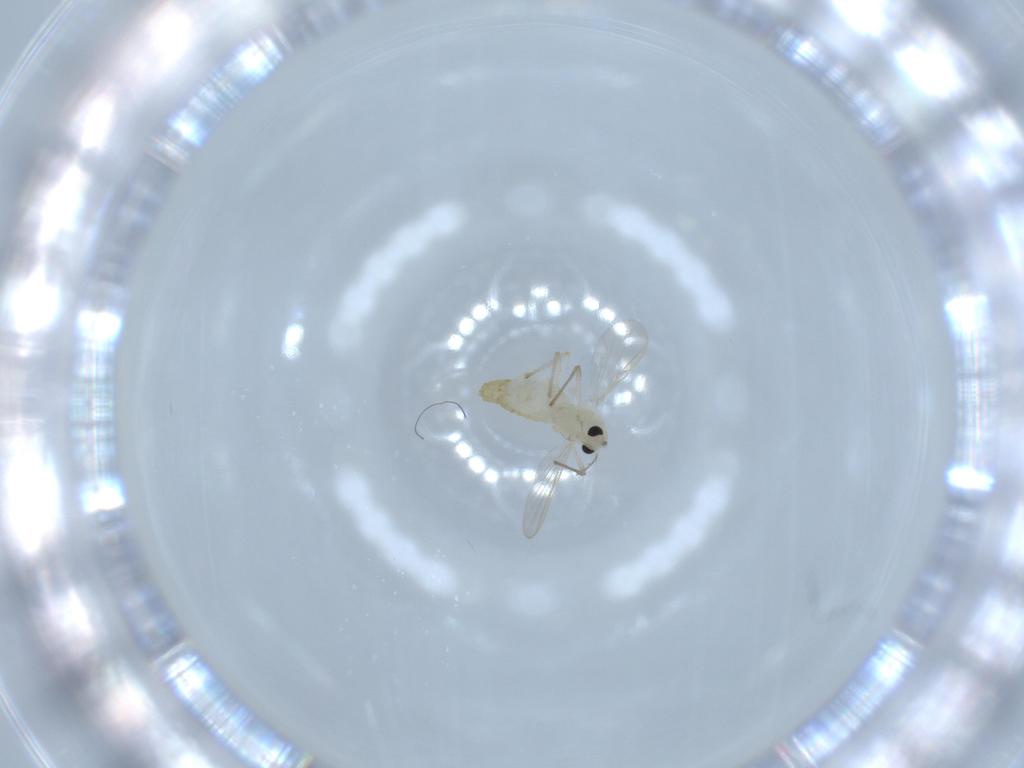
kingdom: Animalia
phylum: Arthropoda
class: Insecta
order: Diptera
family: Chironomidae
